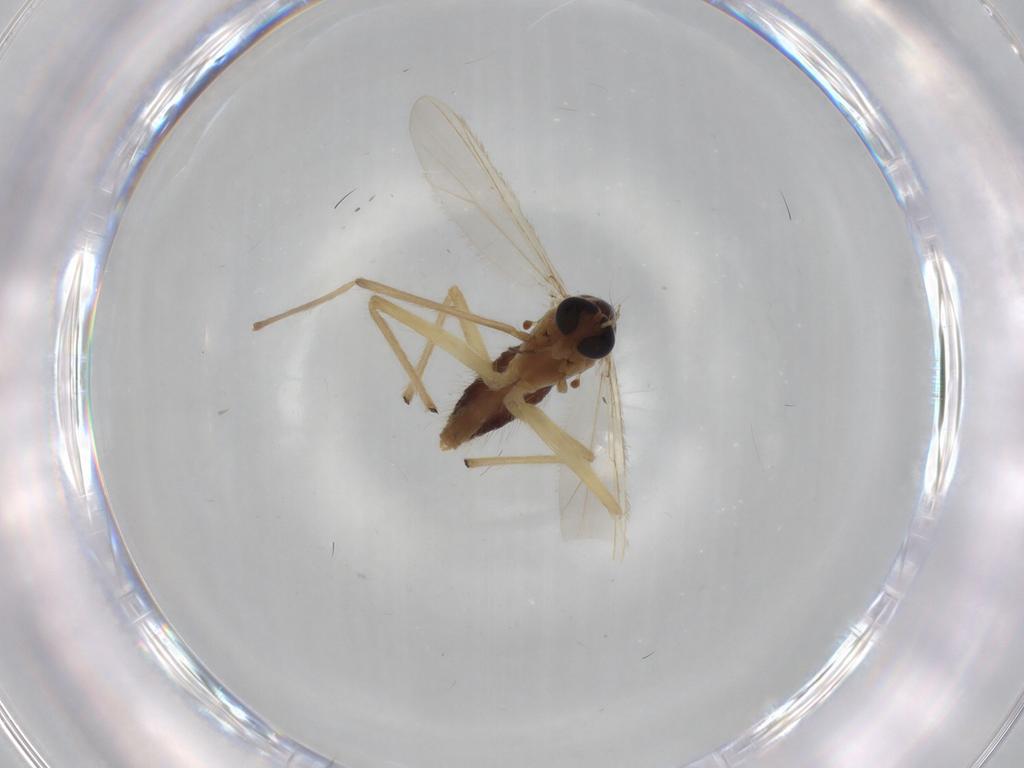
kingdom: Animalia
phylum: Arthropoda
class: Insecta
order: Diptera
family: Chironomidae
